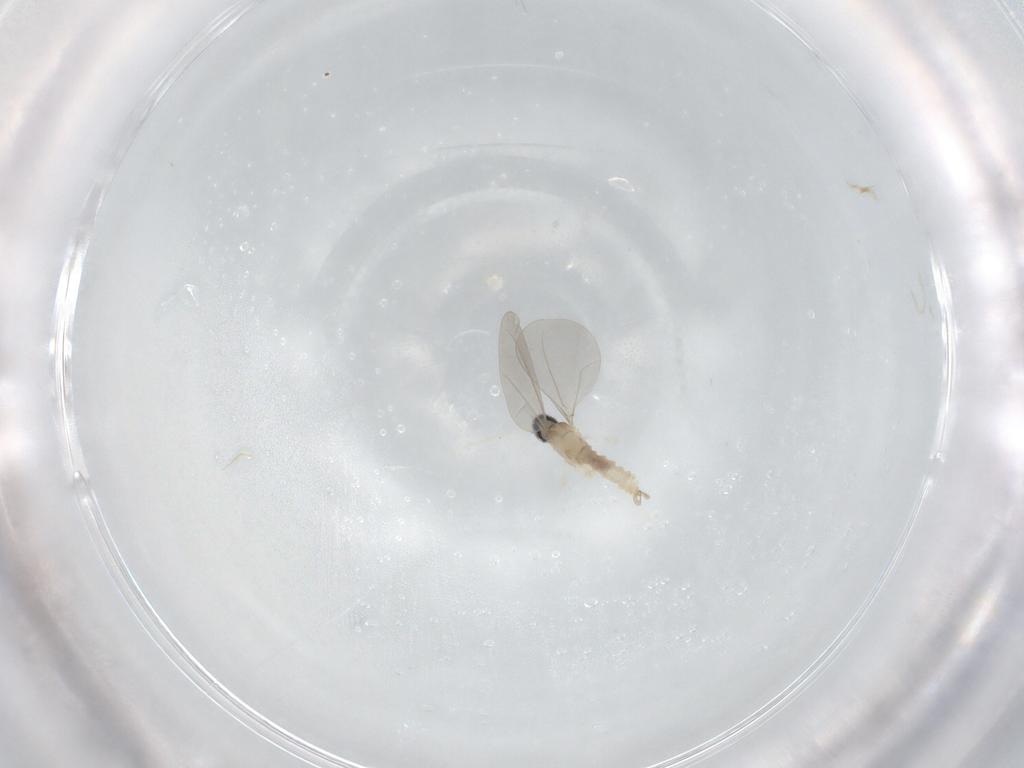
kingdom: Animalia
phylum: Arthropoda
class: Insecta
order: Diptera
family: Cecidomyiidae
